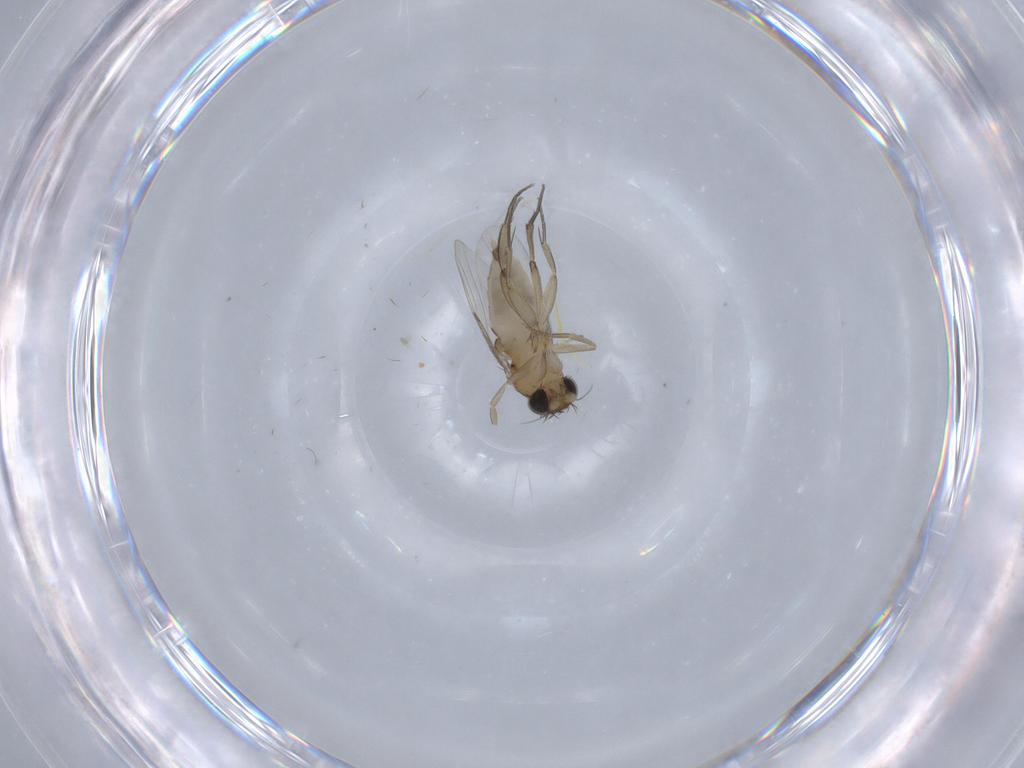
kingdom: Animalia
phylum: Arthropoda
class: Insecta
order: Diptera
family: Phoridae
